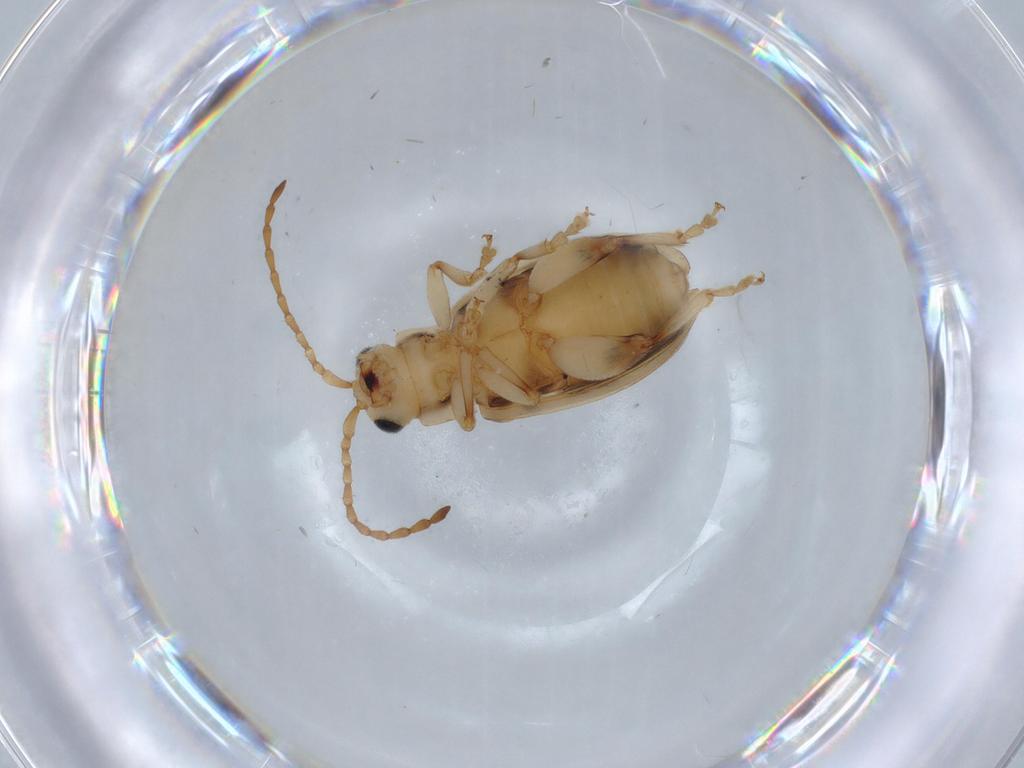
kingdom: Animalia
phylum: Arthropoda
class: Insecta
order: Coleoptera
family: Chrysomelidae
